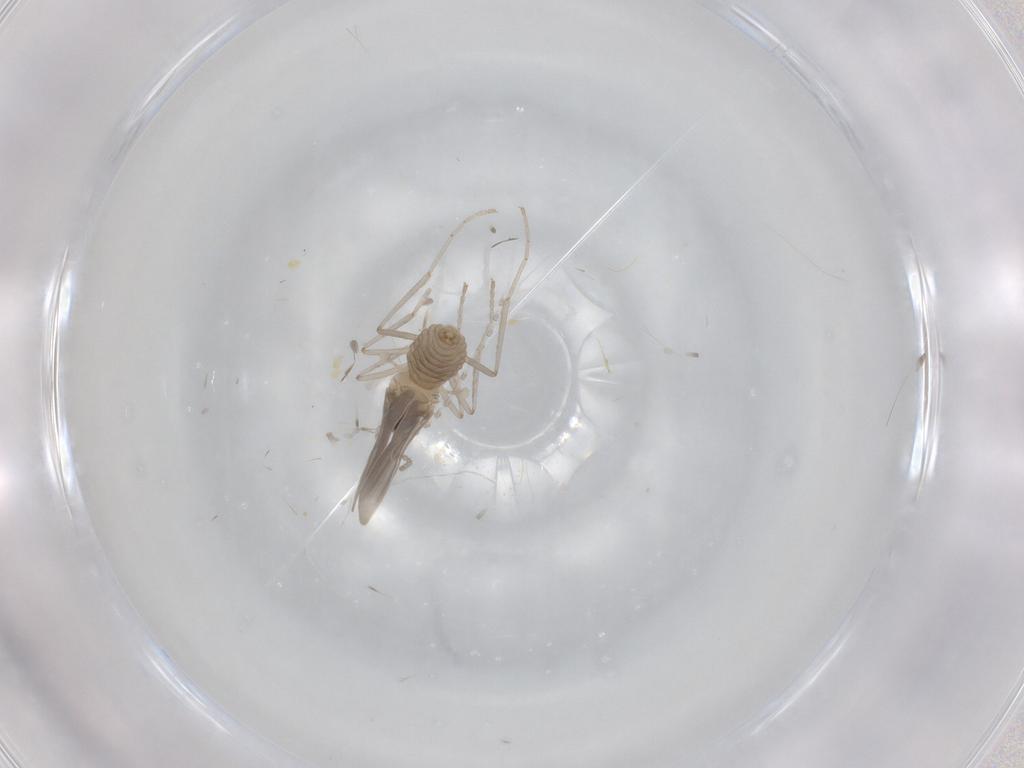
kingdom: Animalia
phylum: Arthropoda
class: Insecta
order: Diptera
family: Cecidomyiidae
